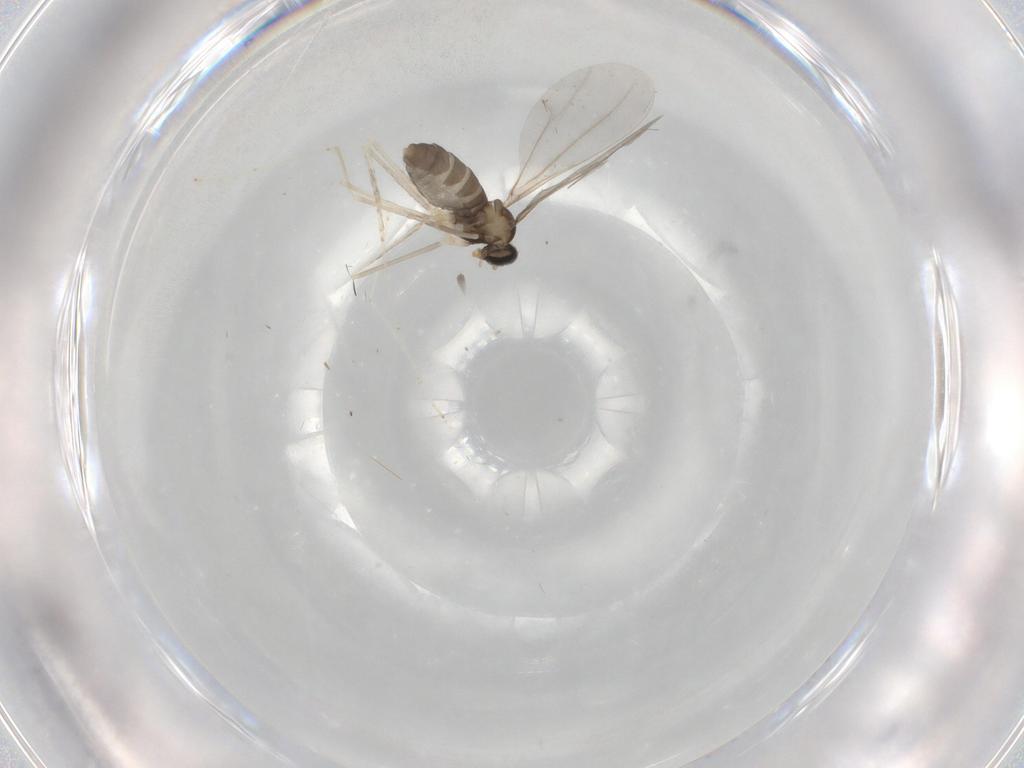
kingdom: Animalia
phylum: Arthropoda
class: Insecta
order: Diptera
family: Cecidomyiidae
